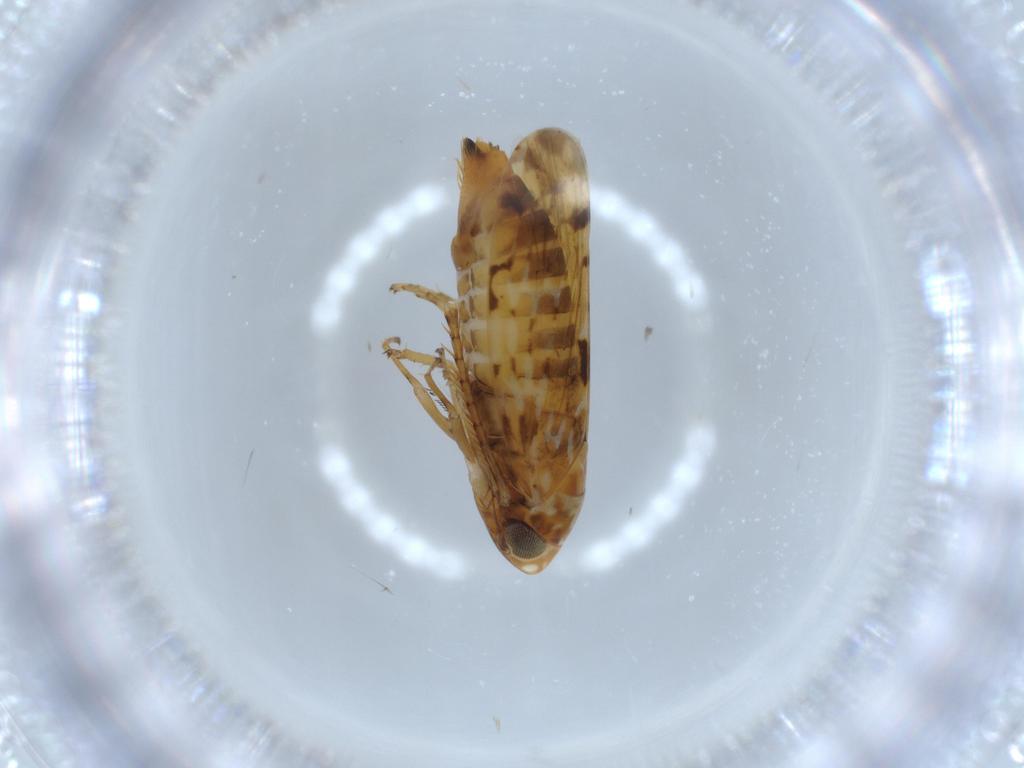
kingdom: Animalia
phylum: Arthropoda
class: Insecta
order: Hemiptera
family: Cicadellidae
